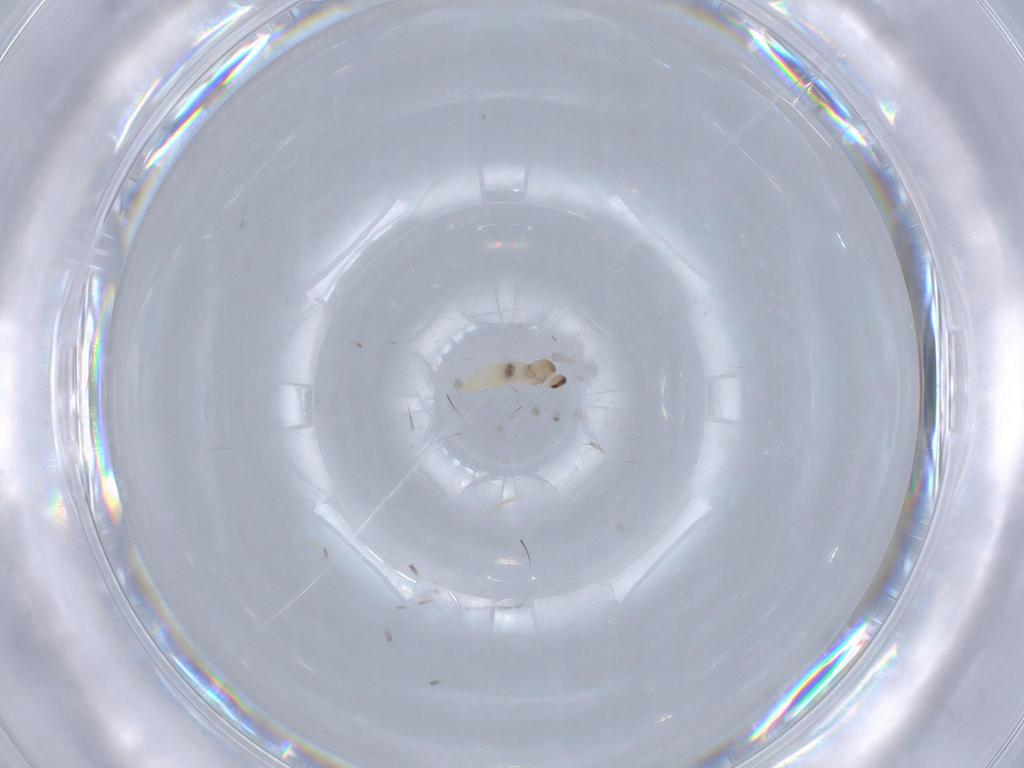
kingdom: Animalia
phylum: Arthropoda
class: Insecta
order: Diptera
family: Cecidomyiidae
